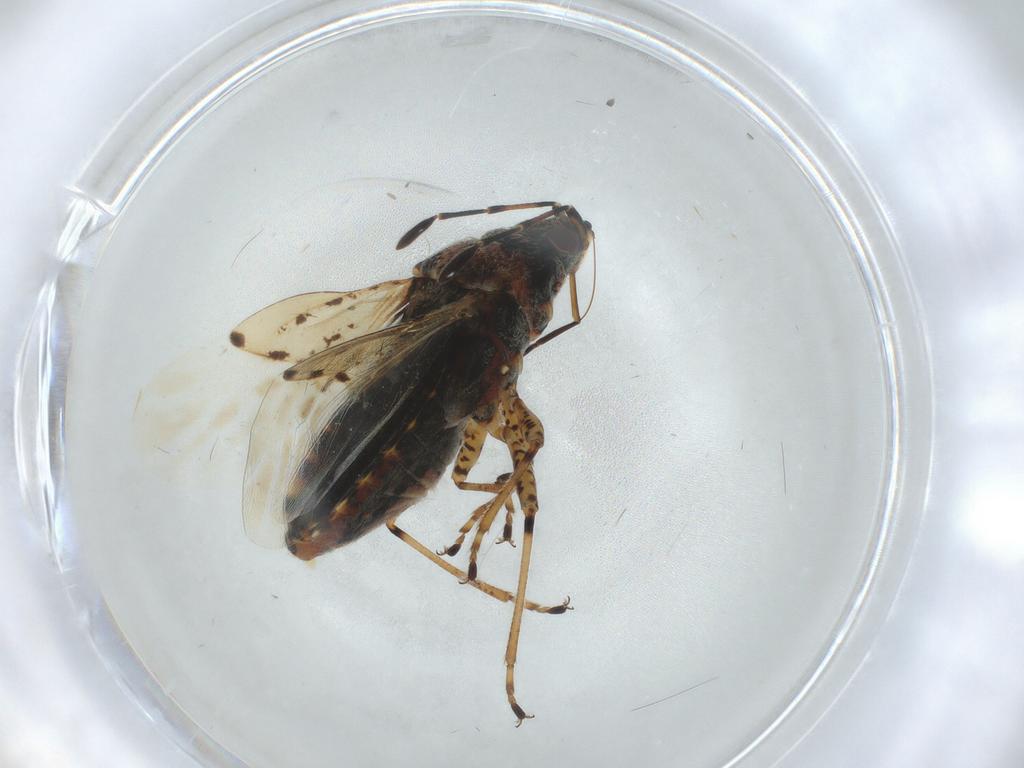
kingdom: Animalia
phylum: Arthropoda
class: Insecta
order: Hemiptera
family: Lygaeidae
